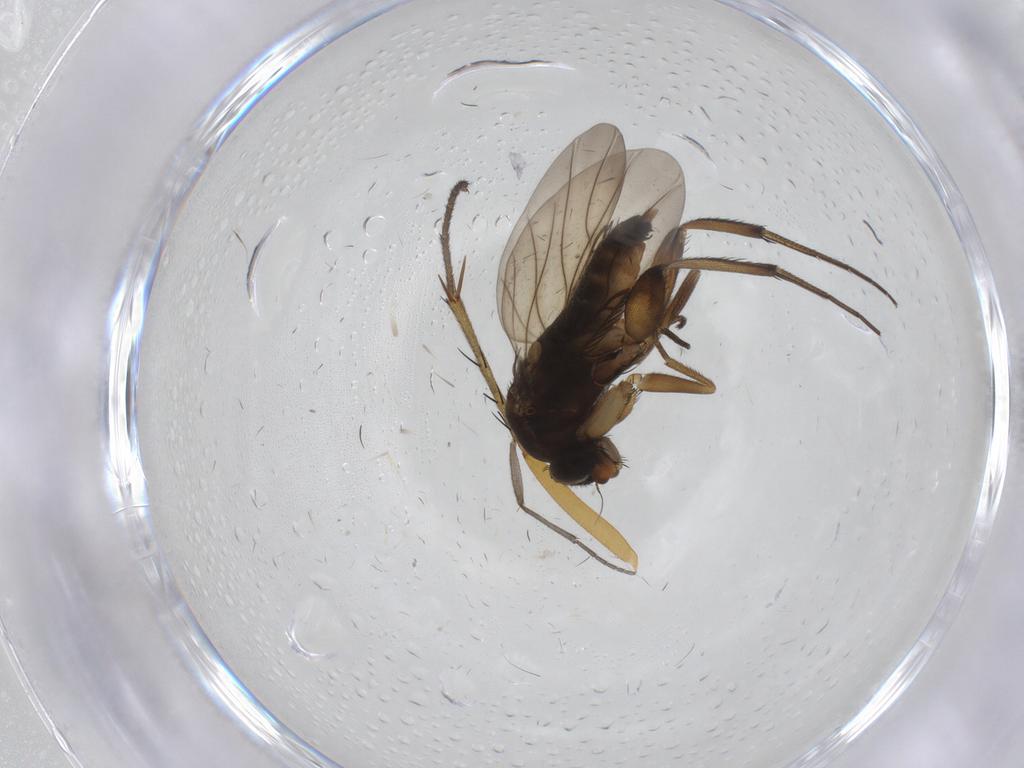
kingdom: Animalia
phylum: Arthropoda
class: Insecta
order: Diptera
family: Phoridae
